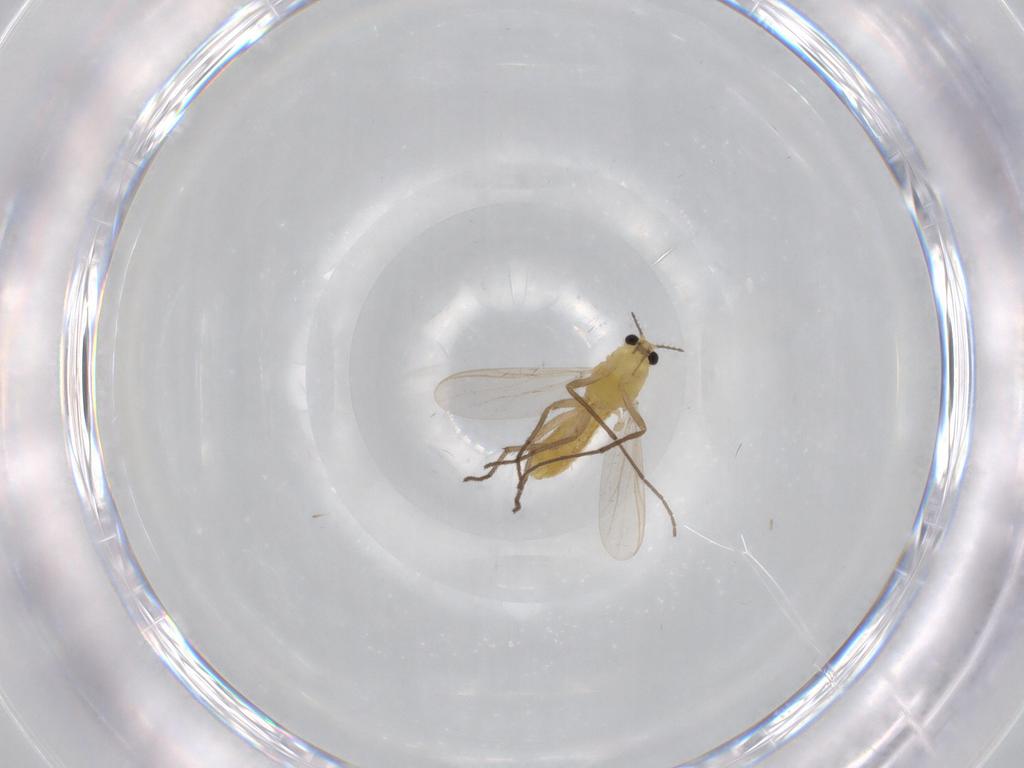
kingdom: Animalia
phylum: Arthropoda
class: Insecta
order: Diptera
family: Chironomidae
